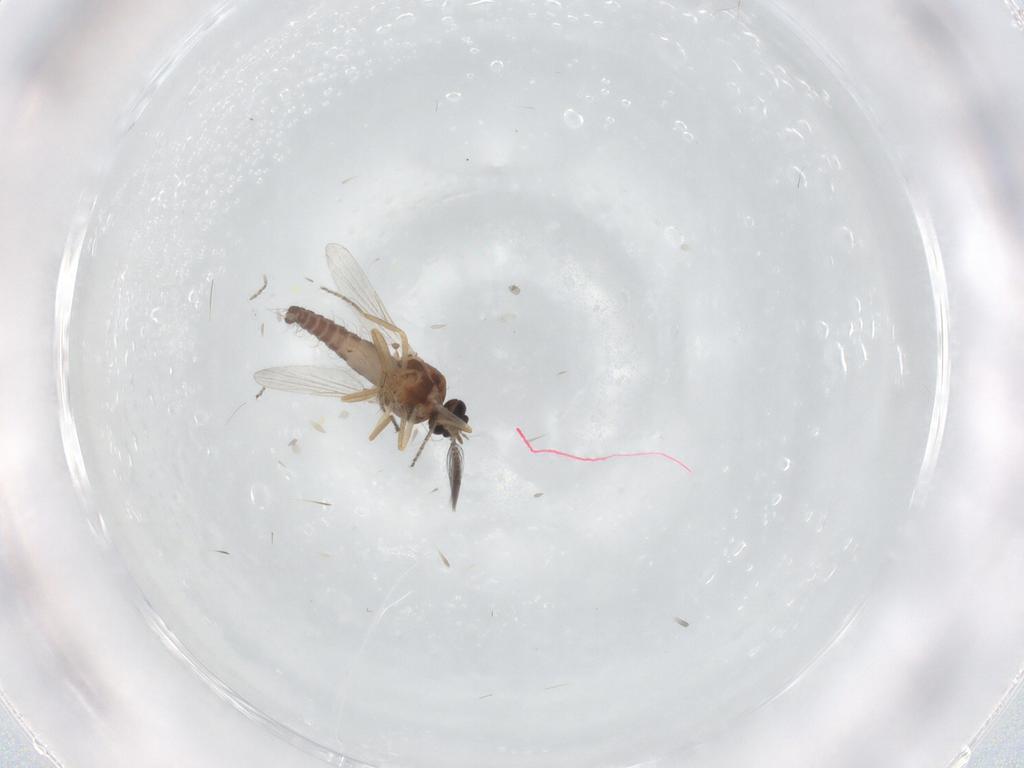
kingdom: Animalia
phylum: Arthropoda
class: Insecta
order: Diptera
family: Ceratopogonidae
